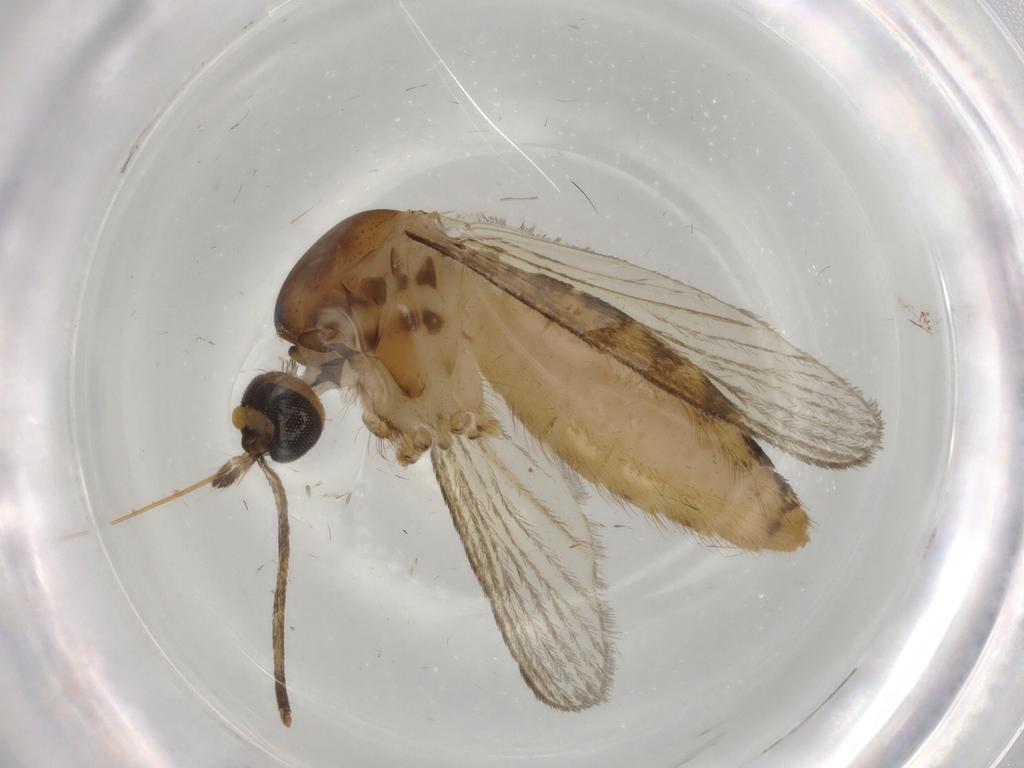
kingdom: Animalia
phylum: Arthropoda
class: Insecta
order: Diptera
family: Culicidae
